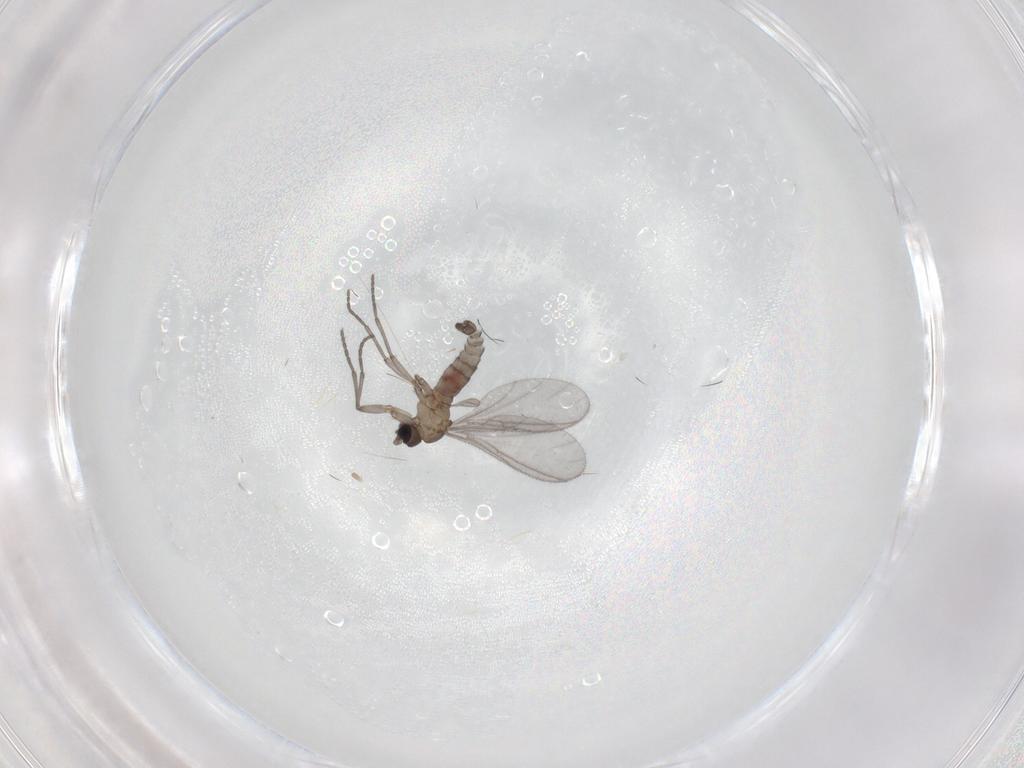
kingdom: Animalia
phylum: Arthropoda
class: Insecta
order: Diptera
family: Sciaridae
